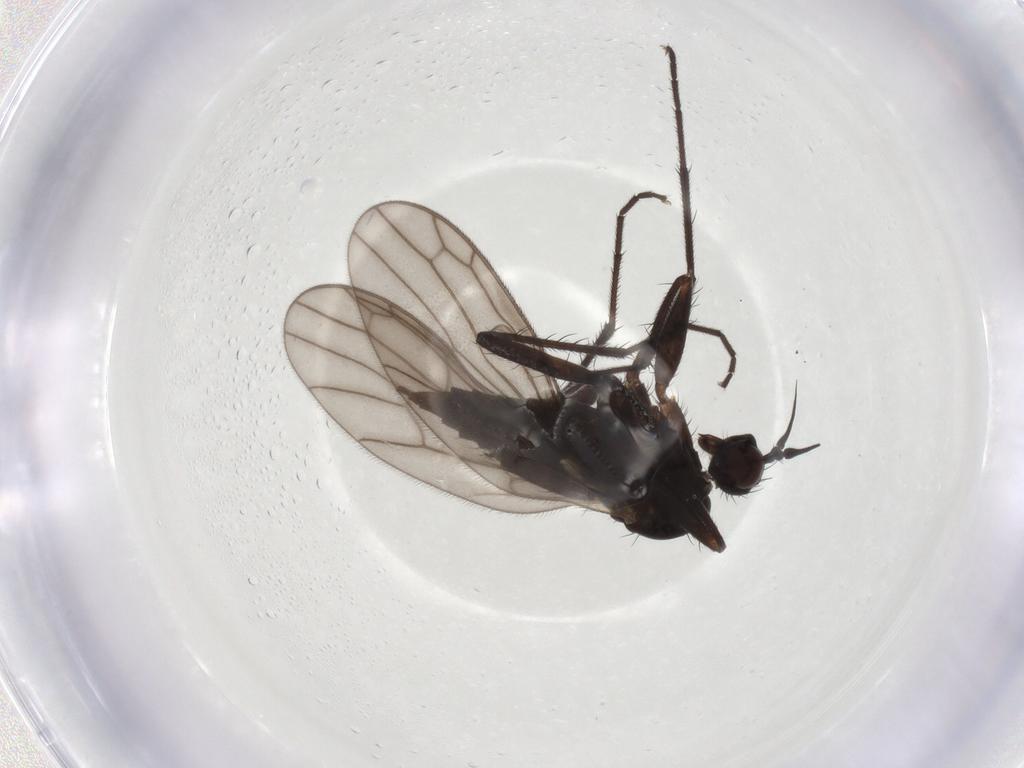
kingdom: Animalia
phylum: Arthropoda
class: Insecta
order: Diptera
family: Empididae
